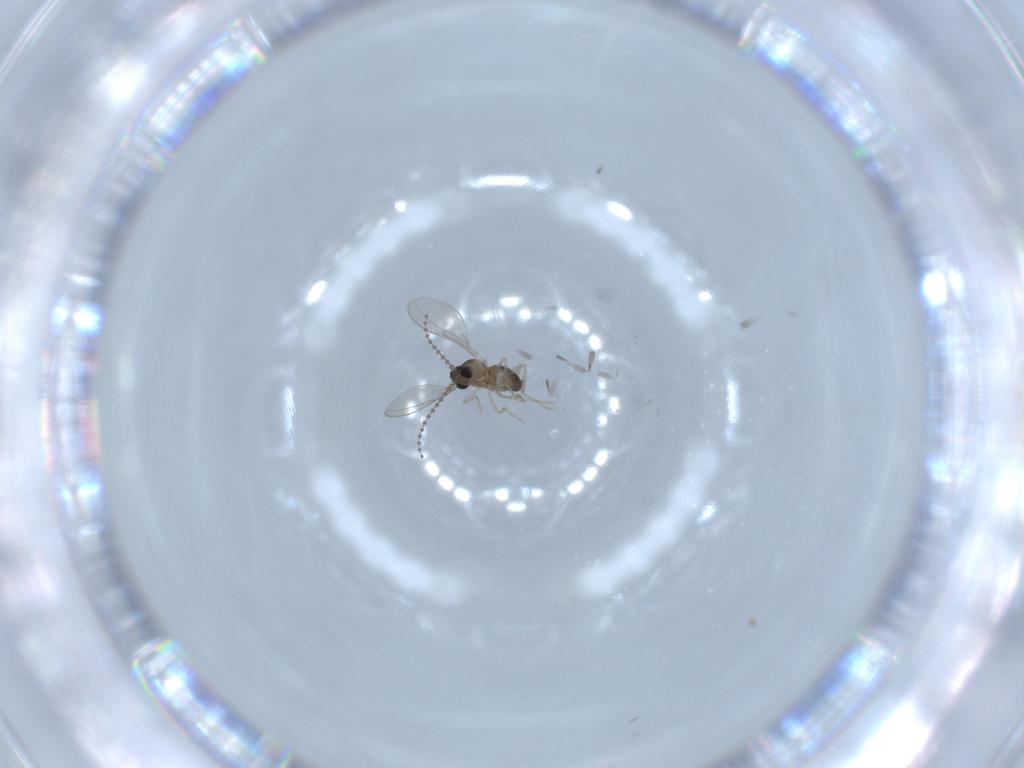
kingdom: Animalia
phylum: Arthropoda
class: Insecta
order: Diptera
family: Cecidomyiidae
